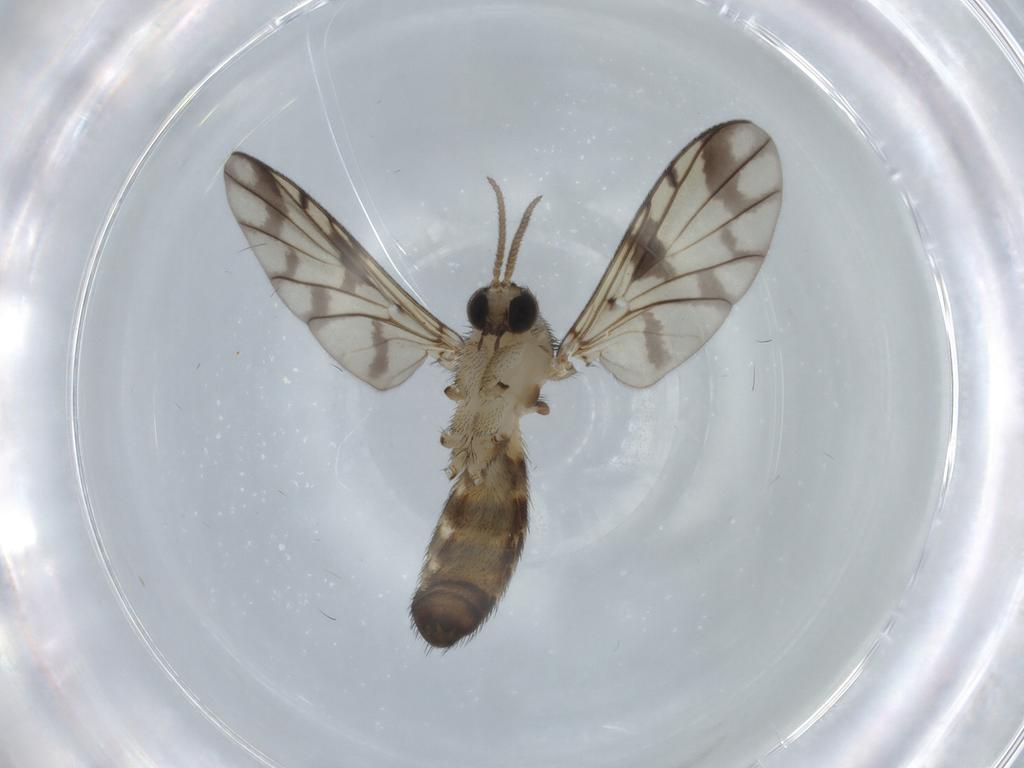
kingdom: Animalia
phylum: Arthropoda
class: Insecta
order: Diptera
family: Keroplatidae
